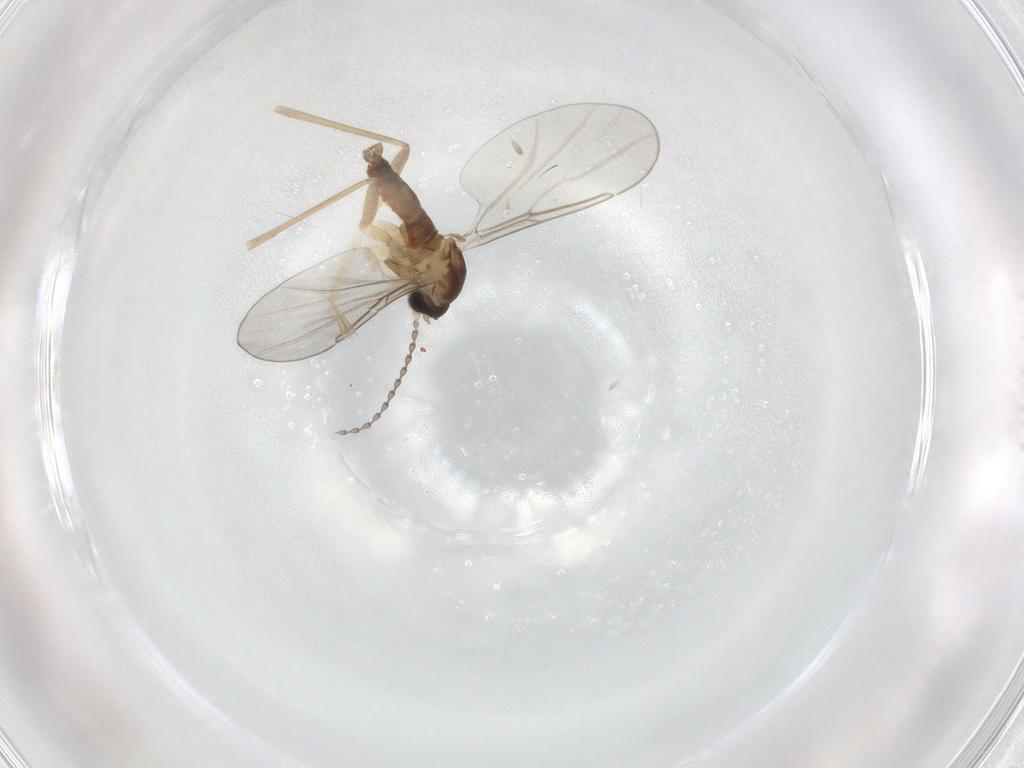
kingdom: Animalia
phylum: Arthropoda
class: Insecta
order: Diptera
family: Cecidomyiidae
